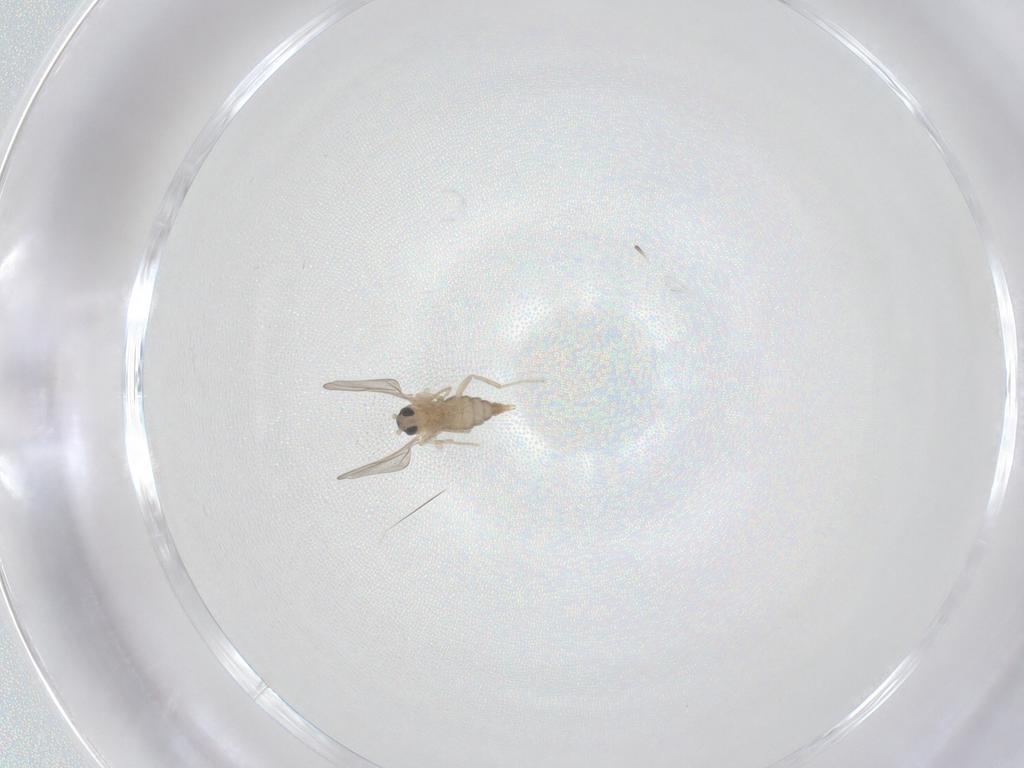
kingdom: Animalia
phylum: Arthropoda
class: Insecta
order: Diptera
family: Cecidomyiidae
